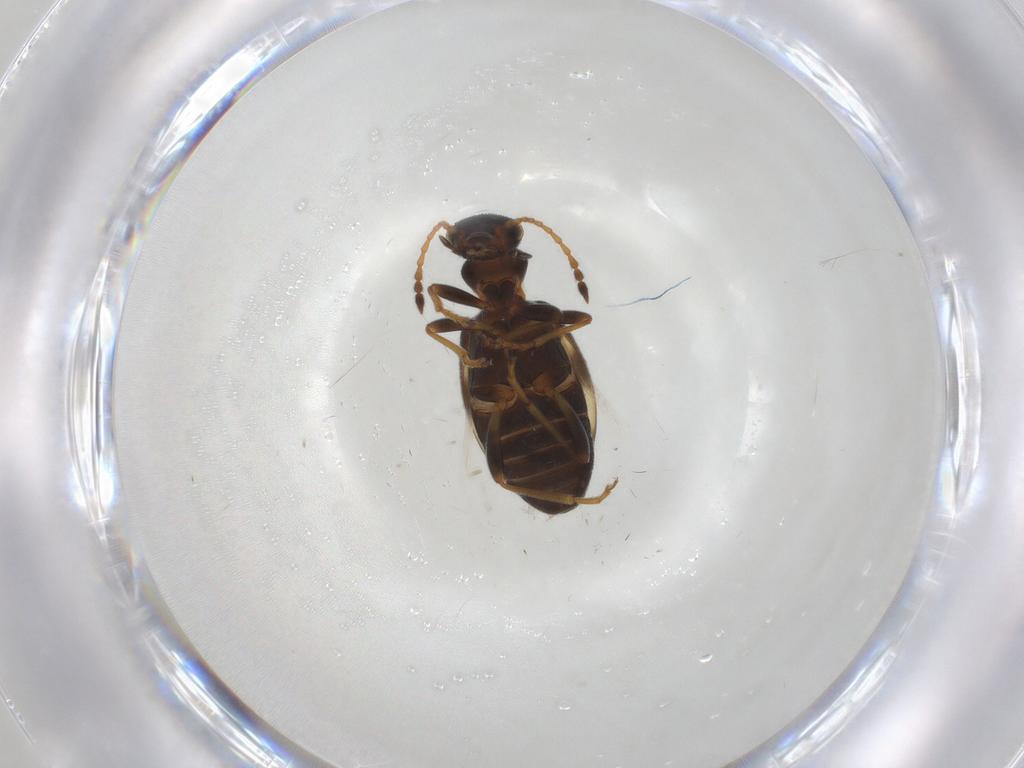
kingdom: Animalia
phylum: Arthropoda
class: Insecta
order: Coleoptera
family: Anthicidae
